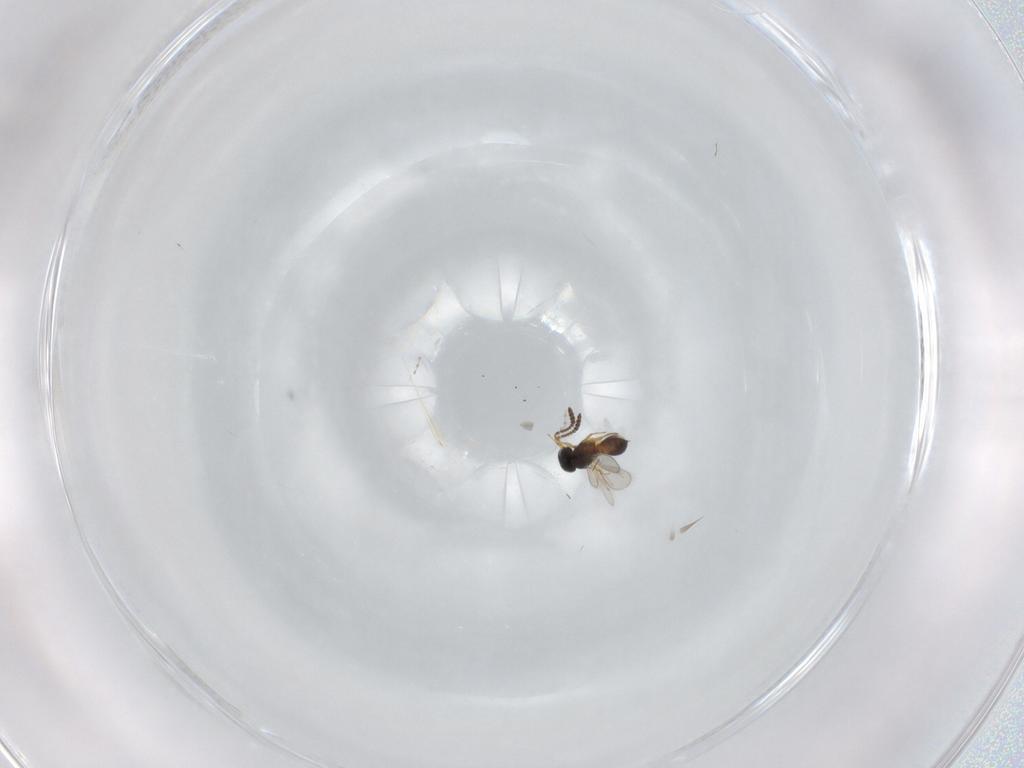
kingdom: Animalia
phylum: Arthropoda
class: Insecta
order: Hymenoptera
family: Scelionidae
